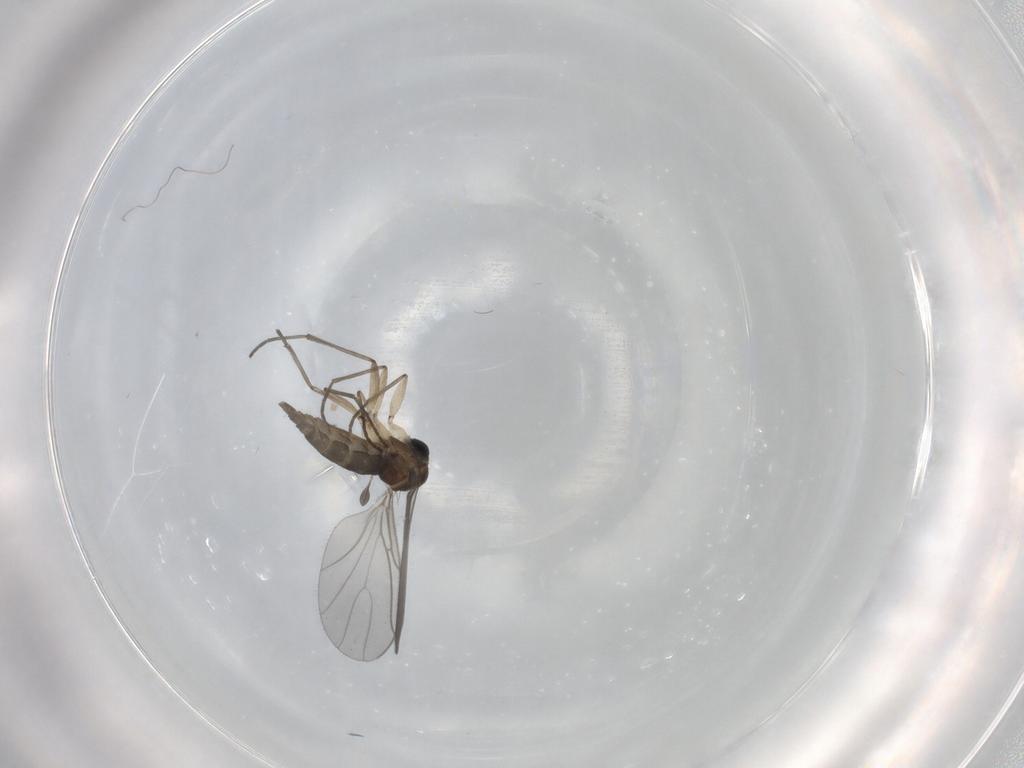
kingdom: Animalia
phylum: Arthropoda
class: Insecta
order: Diptera
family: Sciaridae
